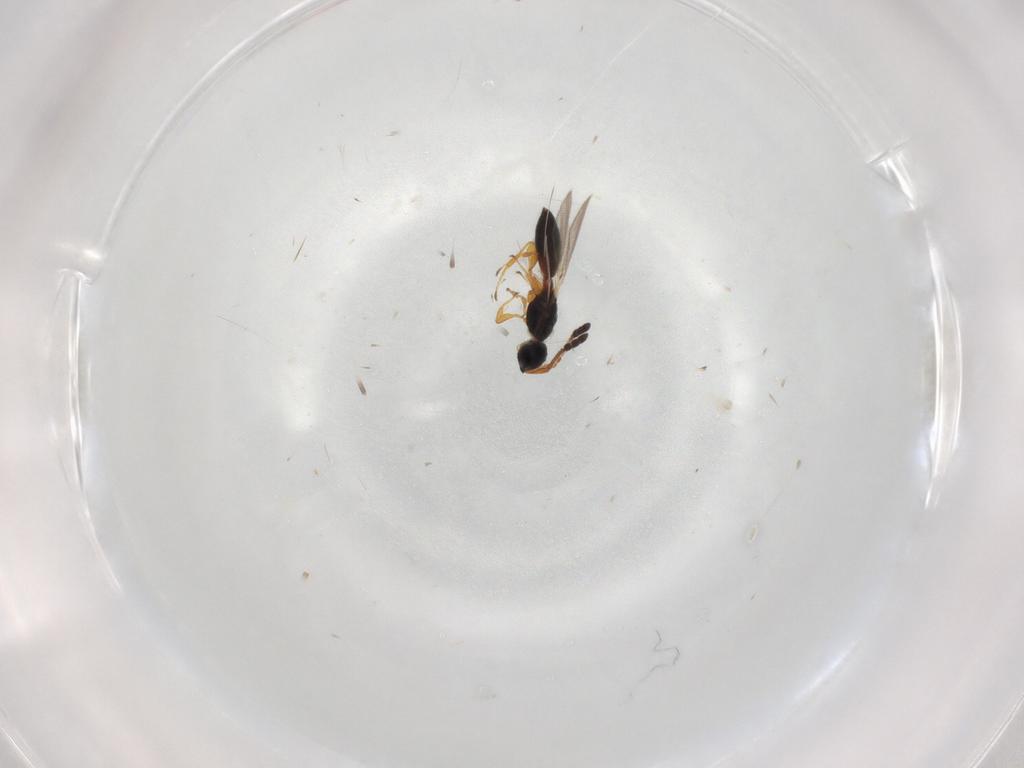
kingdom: Animalia
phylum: Arthropoda
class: Insecta
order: Hymenoptera
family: Diapriidae
